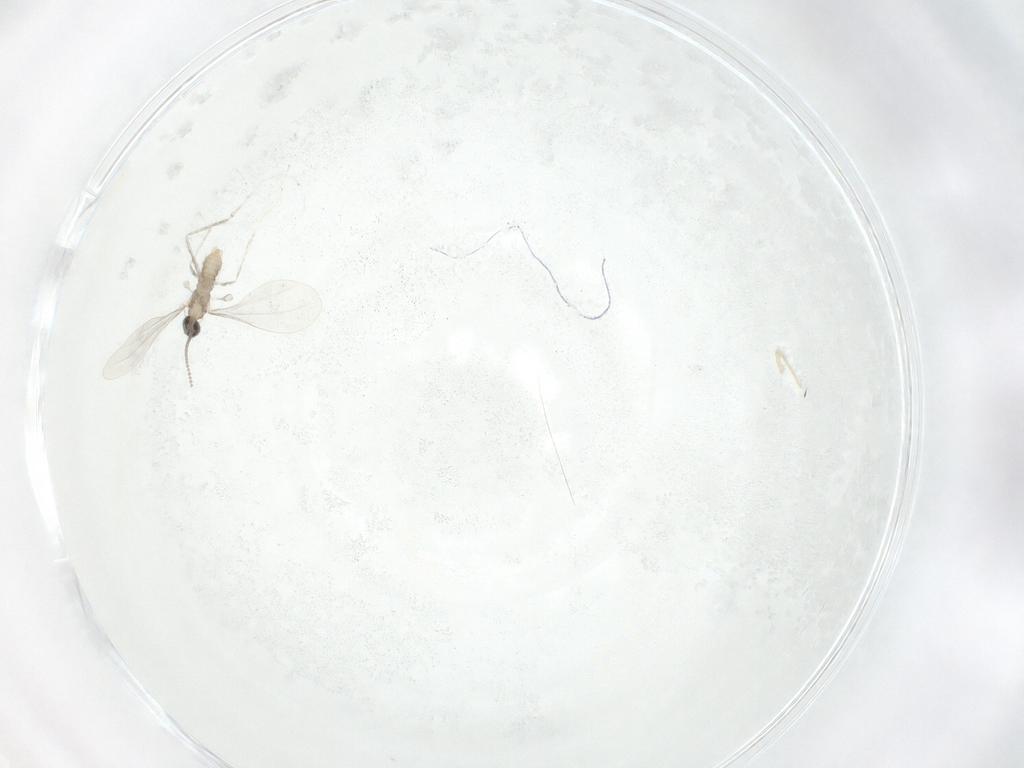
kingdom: Animalia
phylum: Arthropoda
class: Insecta
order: Diptera
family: Cecidomyiidae
